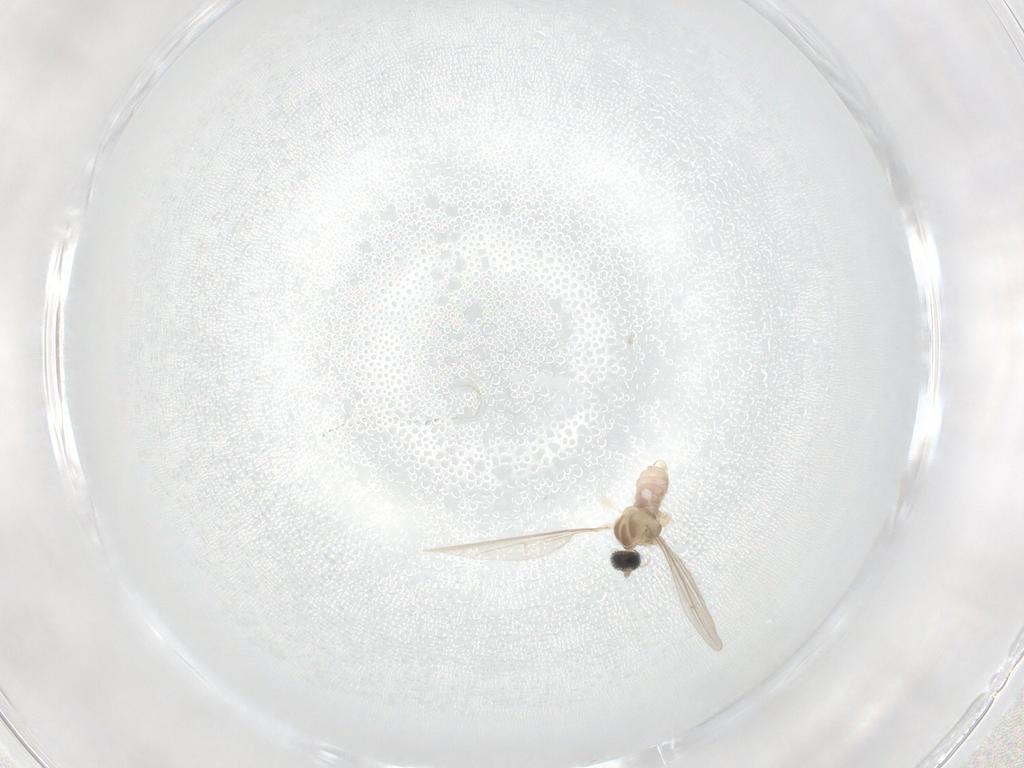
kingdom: Animalia
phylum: Arthropoda
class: Insecta
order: Diptera
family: Cecidomyiidae
